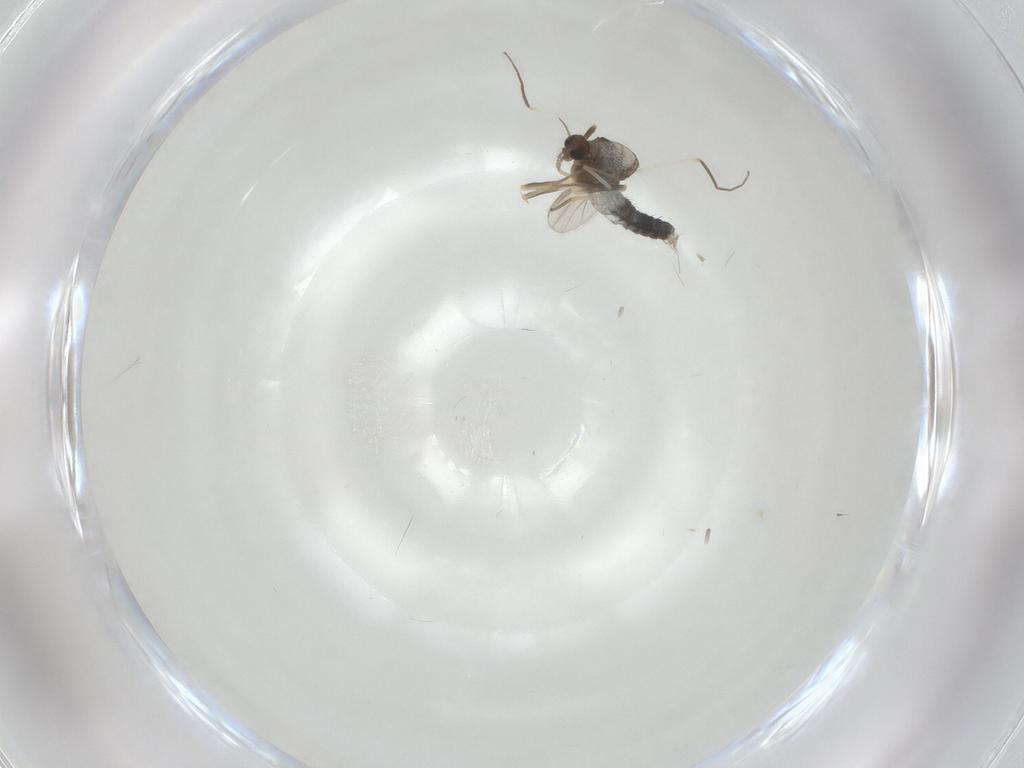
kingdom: Animalia
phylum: Arthropoda
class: Insecta
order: Diptera
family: Chironomidae
